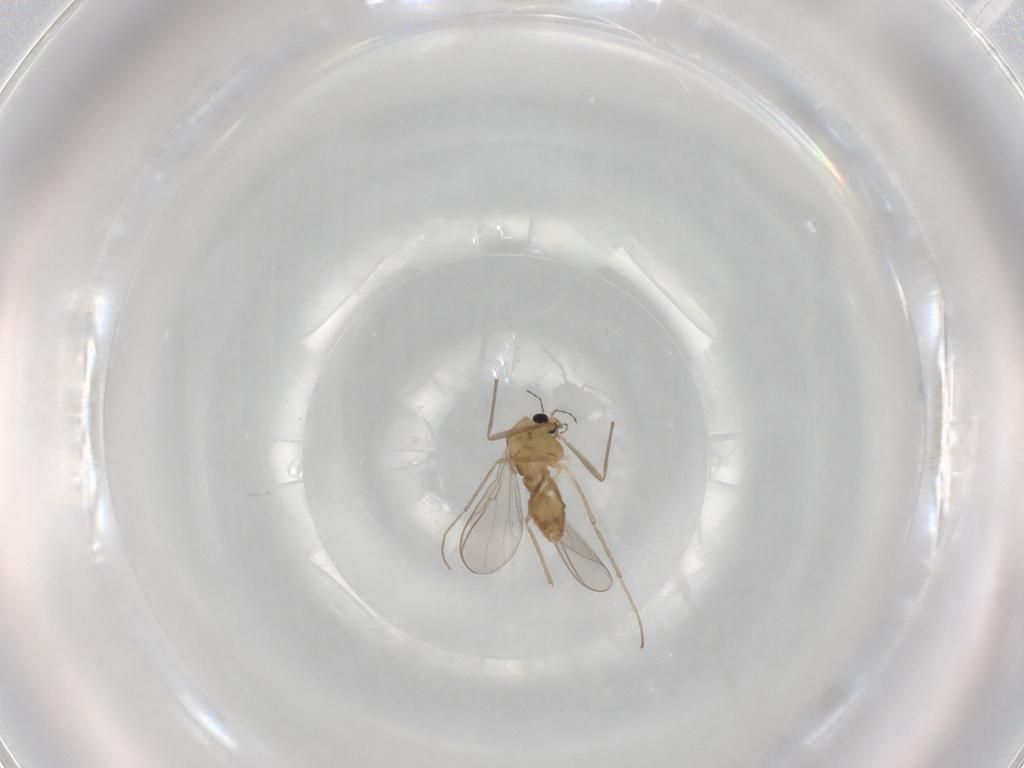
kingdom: Animalia
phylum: Arthropoda
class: Insecta
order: Diptera
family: Chironomidae
